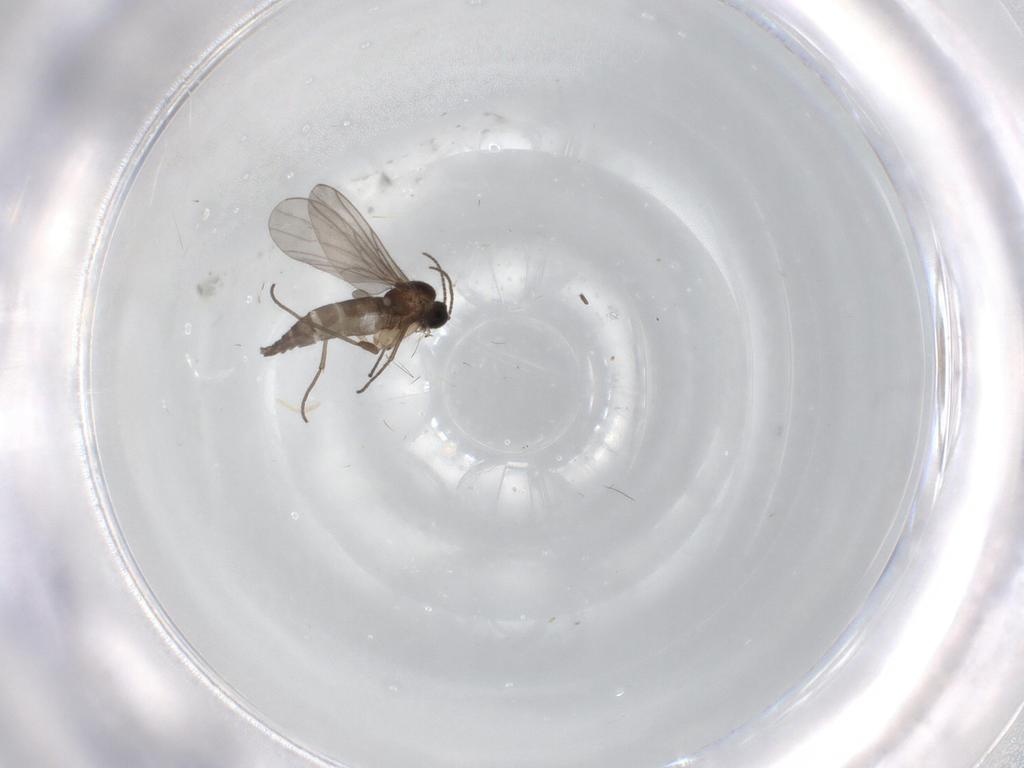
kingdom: Animalia
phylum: Arthropoda
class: Insecta
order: Diptera
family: Mycetophilidae
